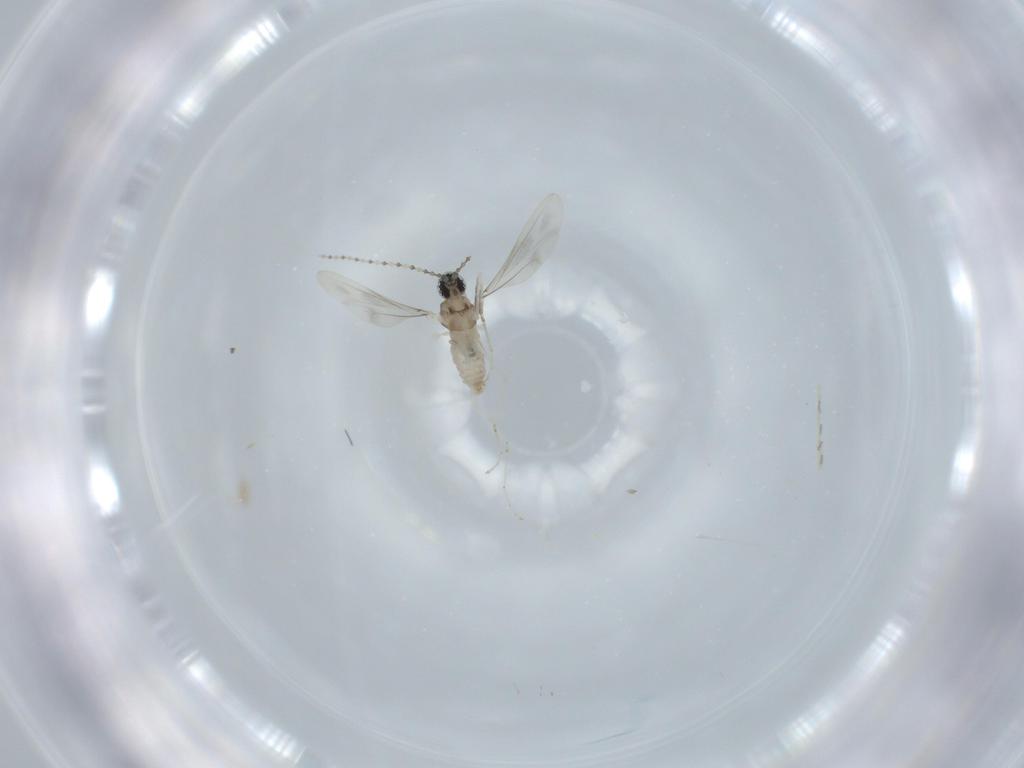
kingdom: Animalia
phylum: Arthropoda
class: Insecta
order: Diptera
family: Cecidomyiidae
